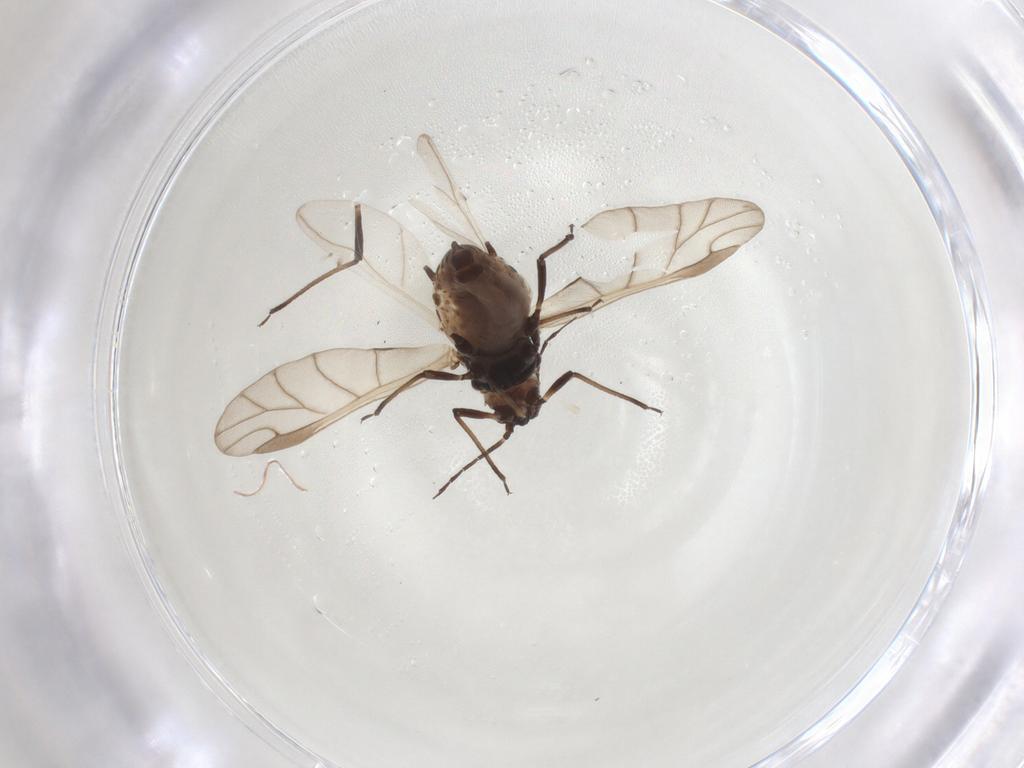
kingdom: Animalia
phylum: Arthropoda
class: Insecta
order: Hemiptera
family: Aphididae
